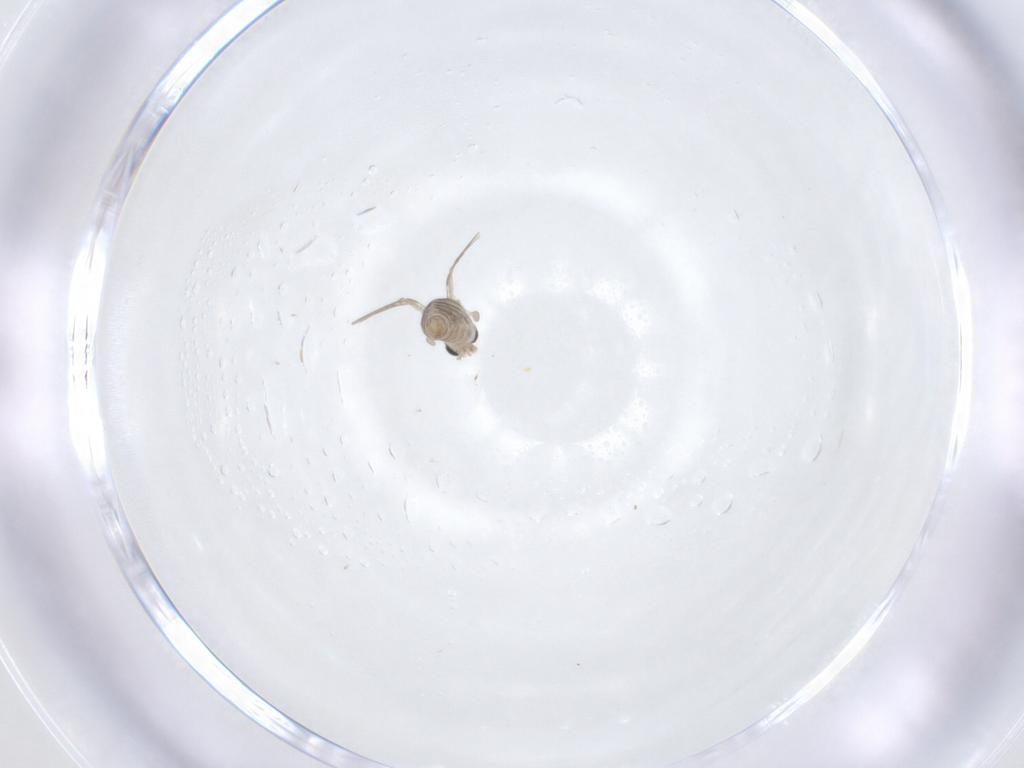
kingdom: Animalia
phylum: Arthropoda
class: Insecta
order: Diptera
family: Psychodidae
